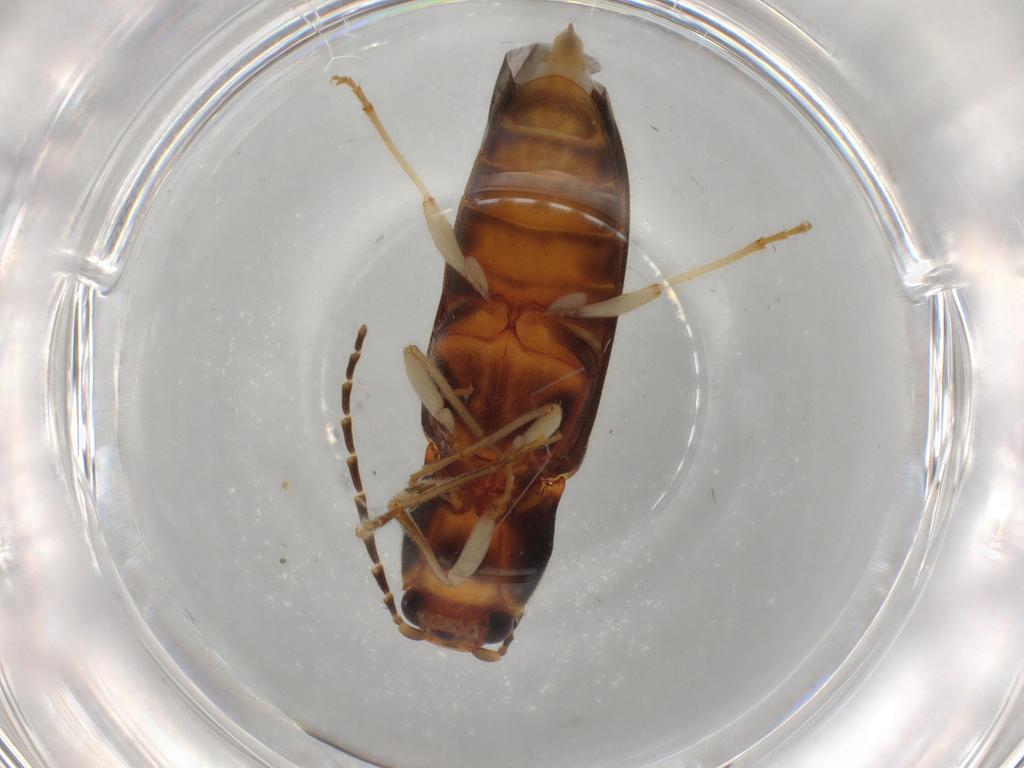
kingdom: Animalia
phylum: Arthropoda
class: Insecta
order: Coleoptera
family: Elateridae
